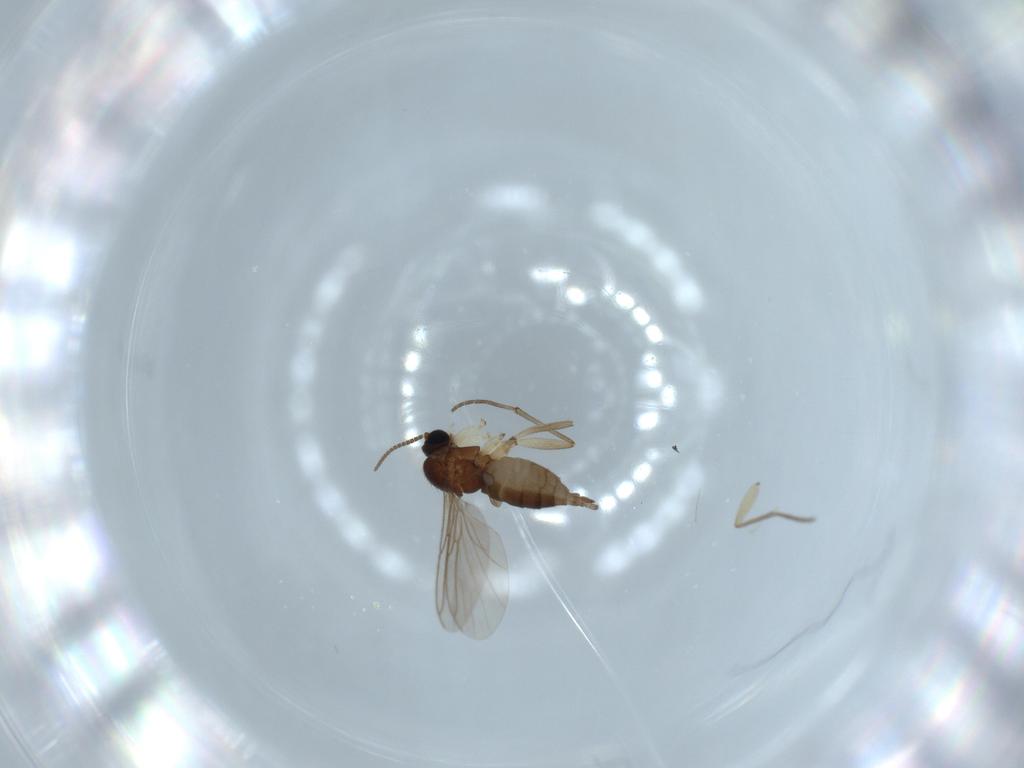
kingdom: Animalia
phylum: Arthropoda
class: Insecta
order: Diptera
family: Sciaridae
